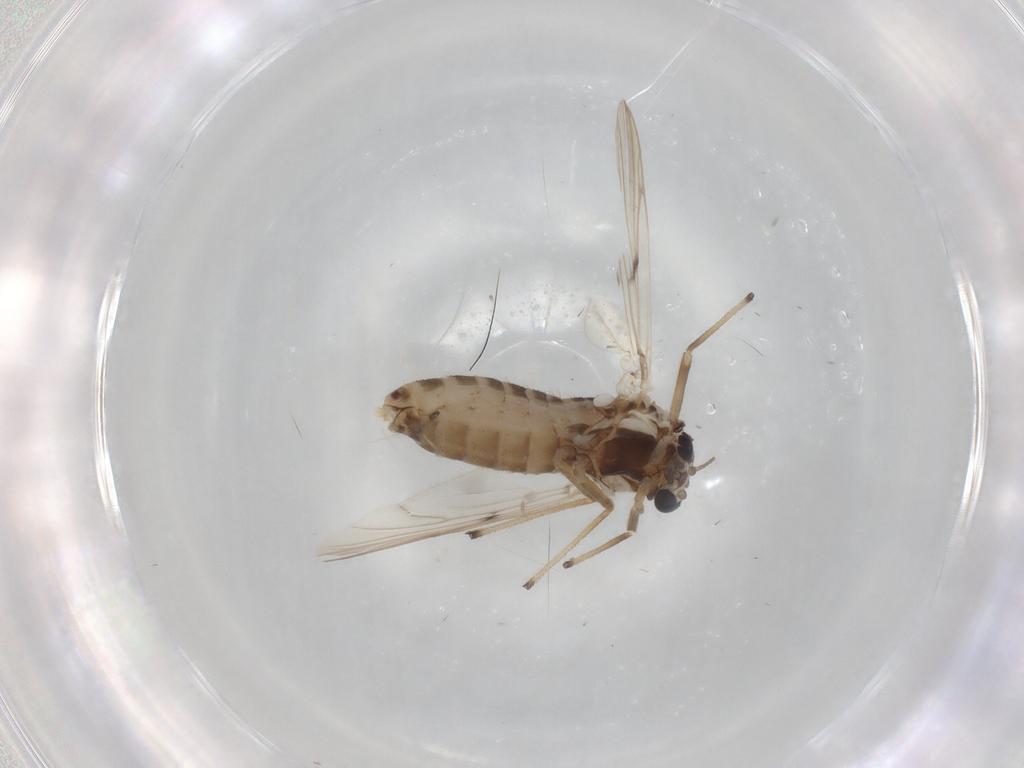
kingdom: Animalia
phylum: Arthropoda
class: Insecta
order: Diptera
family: Chironomidae
